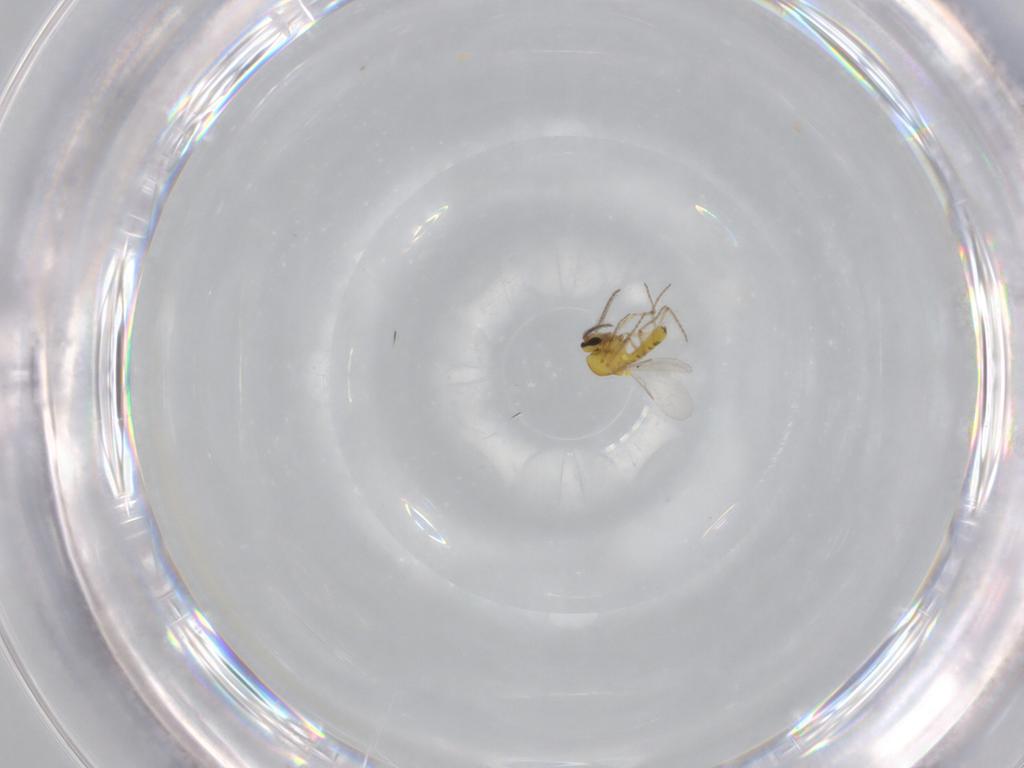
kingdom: Animalia
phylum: Arthropoda
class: Insecta
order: Diptera
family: Ceratopogonidae
